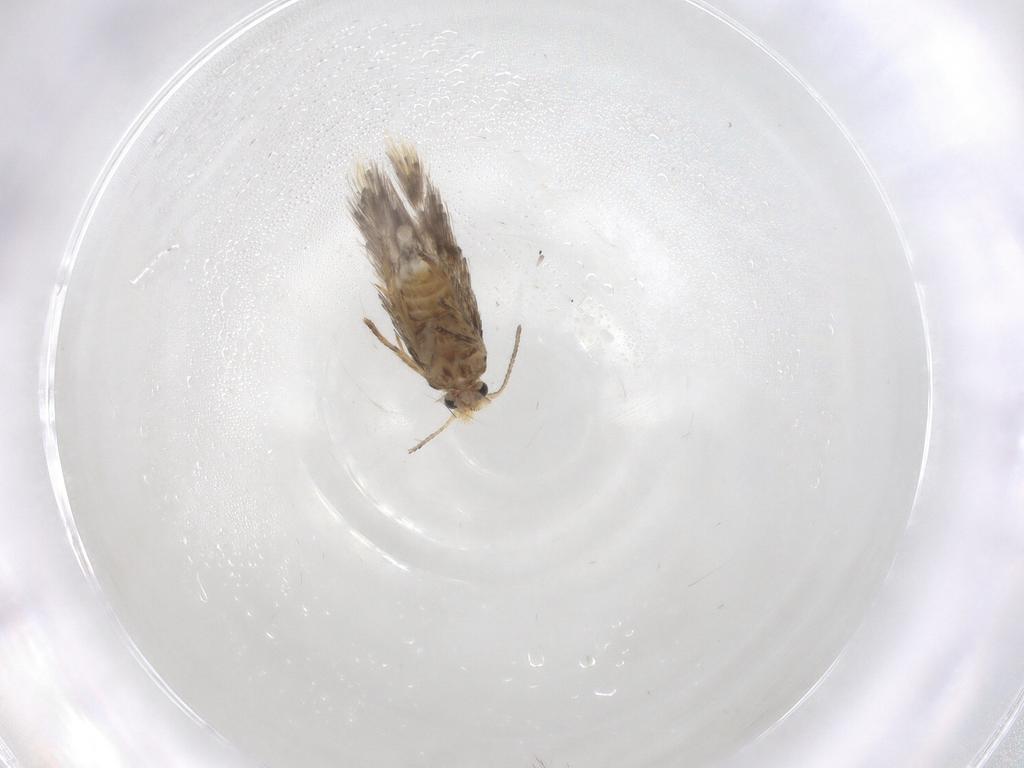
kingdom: Animalia
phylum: Arthropoda
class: Insecta
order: Lepidoptera
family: Nepticulidae
